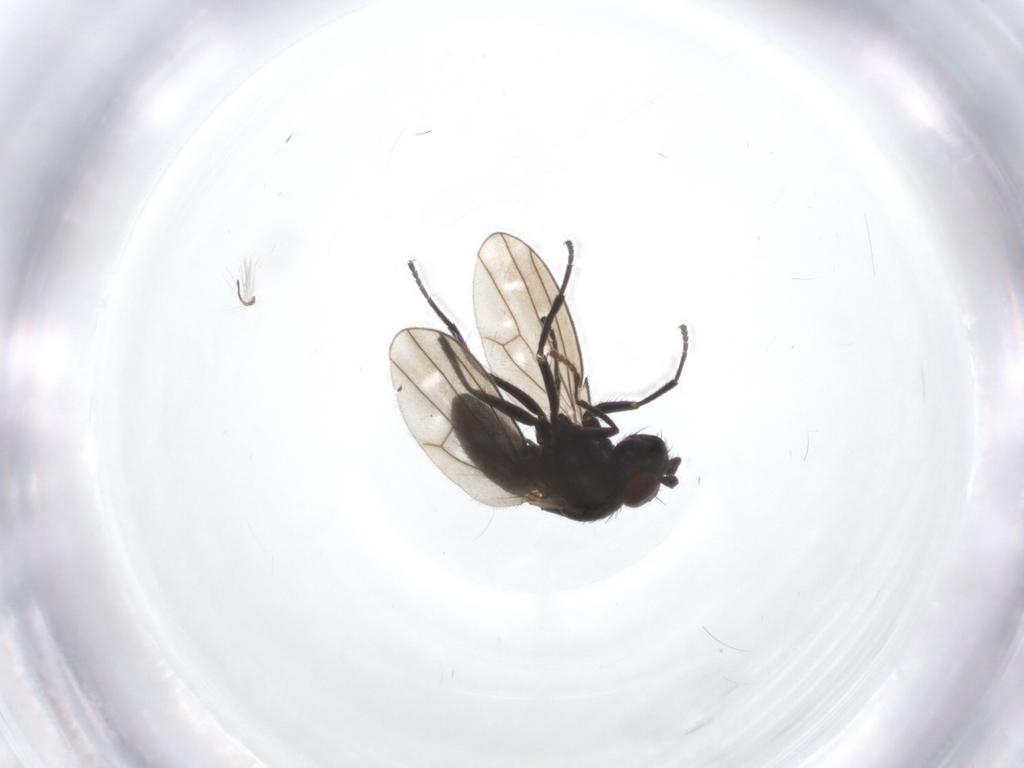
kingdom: Animalia
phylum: Arthropoda
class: Insecta
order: Diptera
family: Ephydridae
